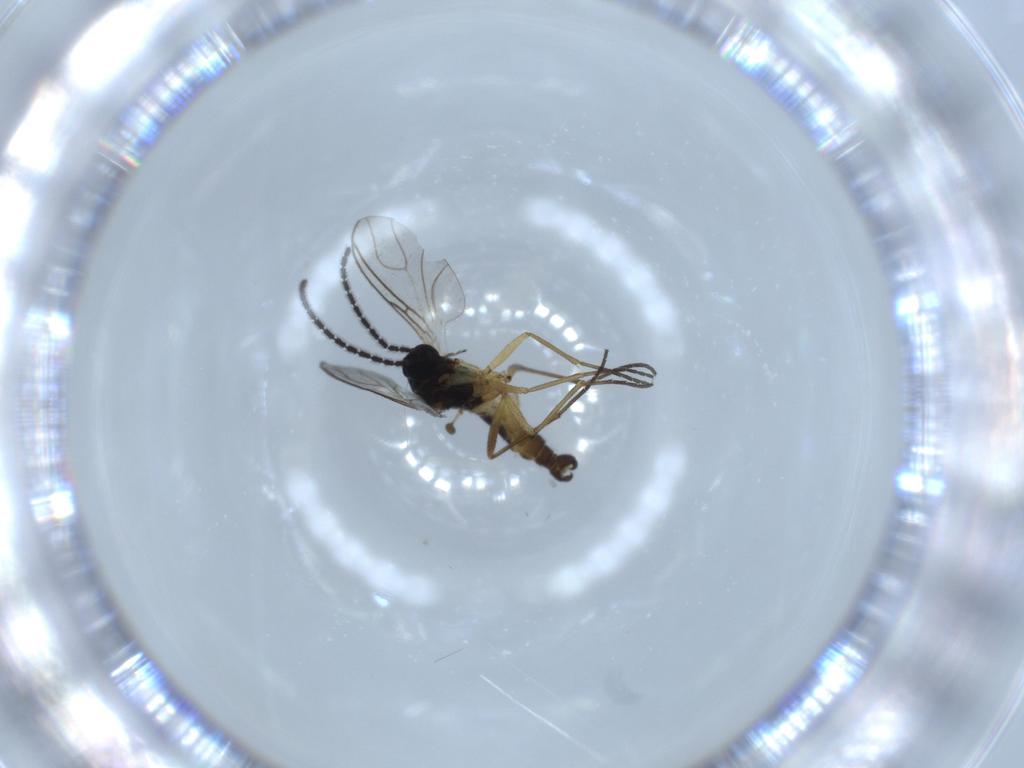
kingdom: Animalia
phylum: Arthropoda
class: Insecta
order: Diptera
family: Sciaridae
